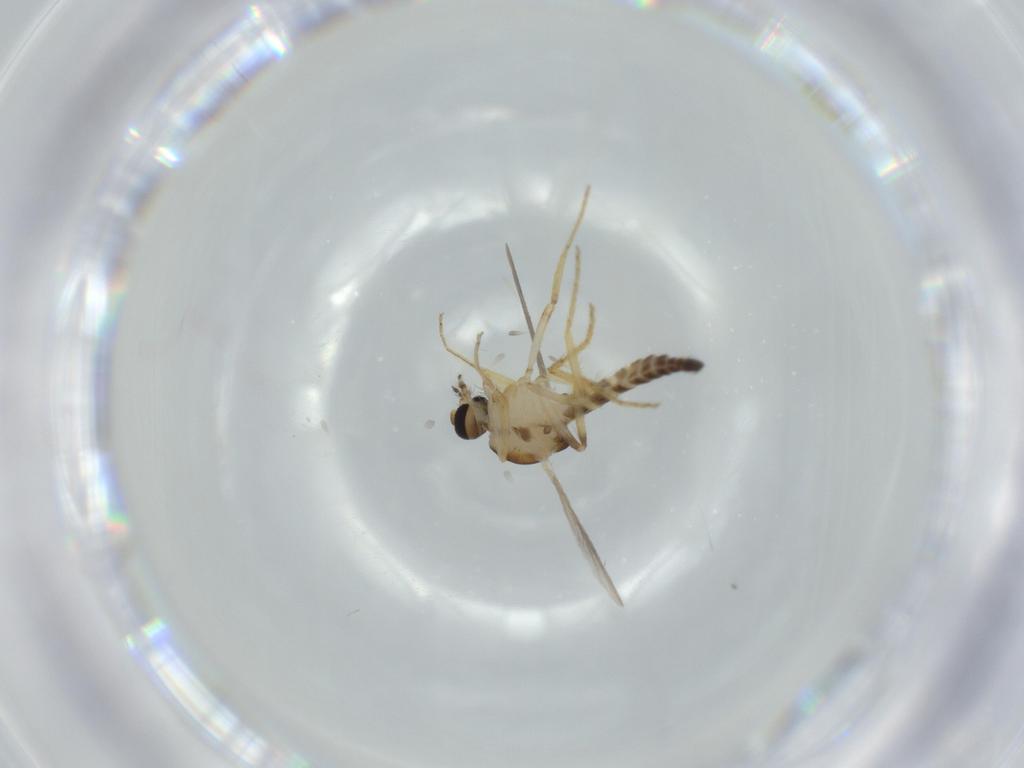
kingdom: Animalia
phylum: Arthropoda
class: Insecta
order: Diptera
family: Ceratopogonidae
